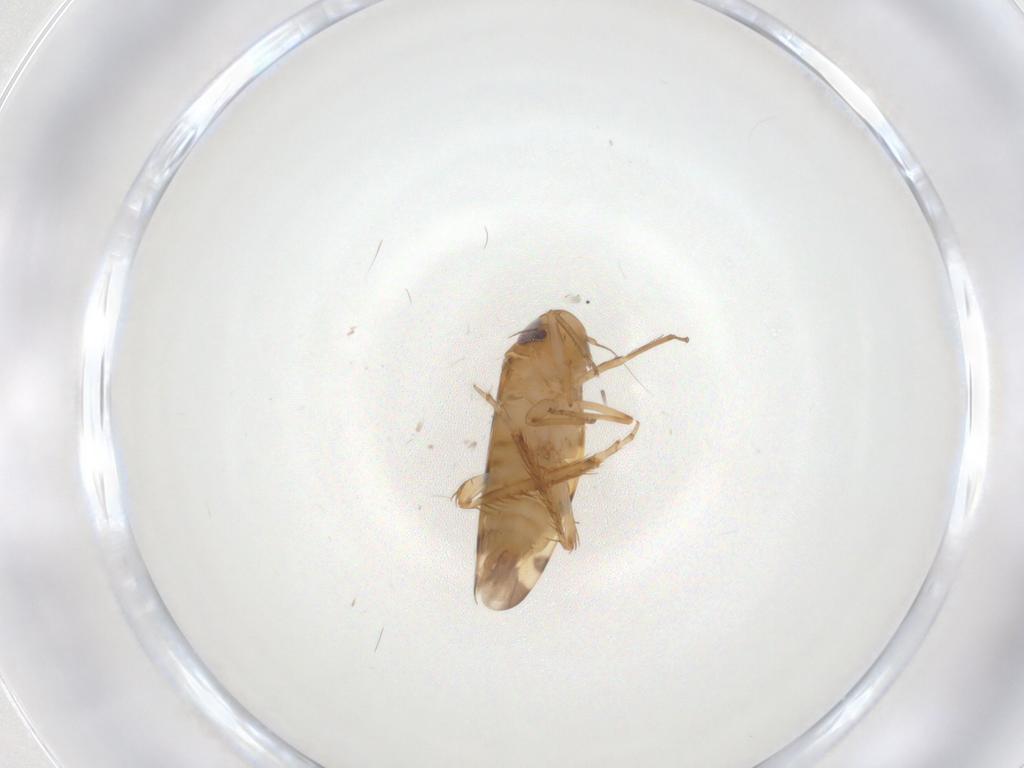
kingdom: Animalia
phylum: Arthropoda
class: Insecta
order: Hemiptera
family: Cicadellidae
